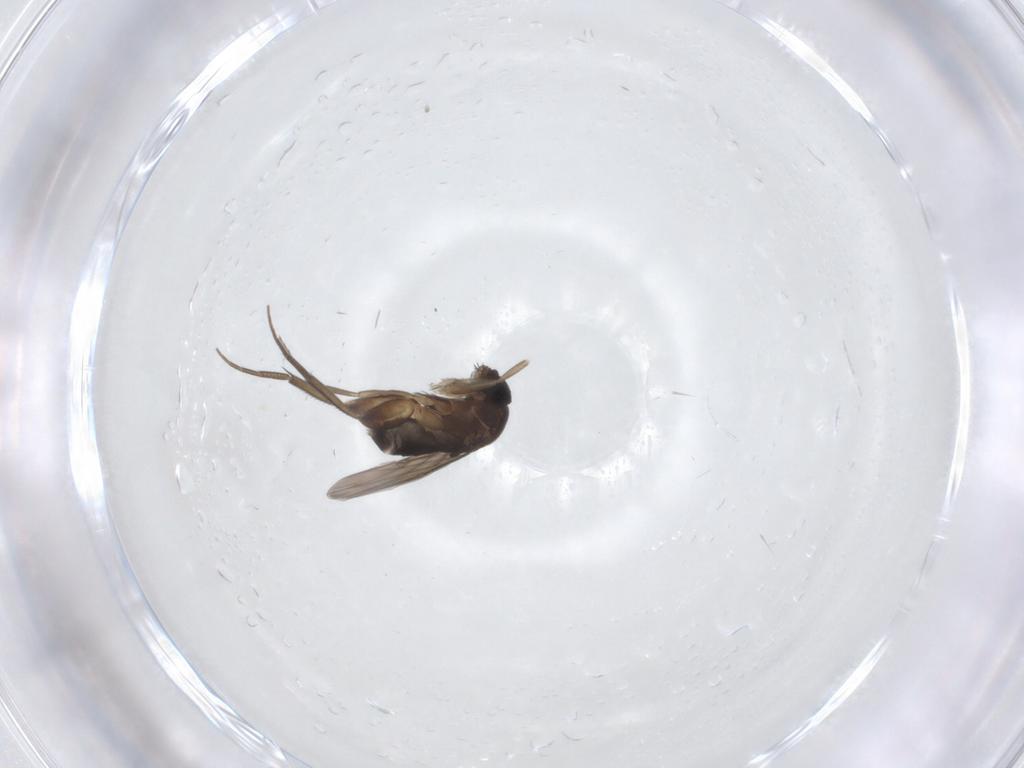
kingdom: Animalia
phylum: Arthropoda
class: Insecta
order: Diptera
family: Phoridae
